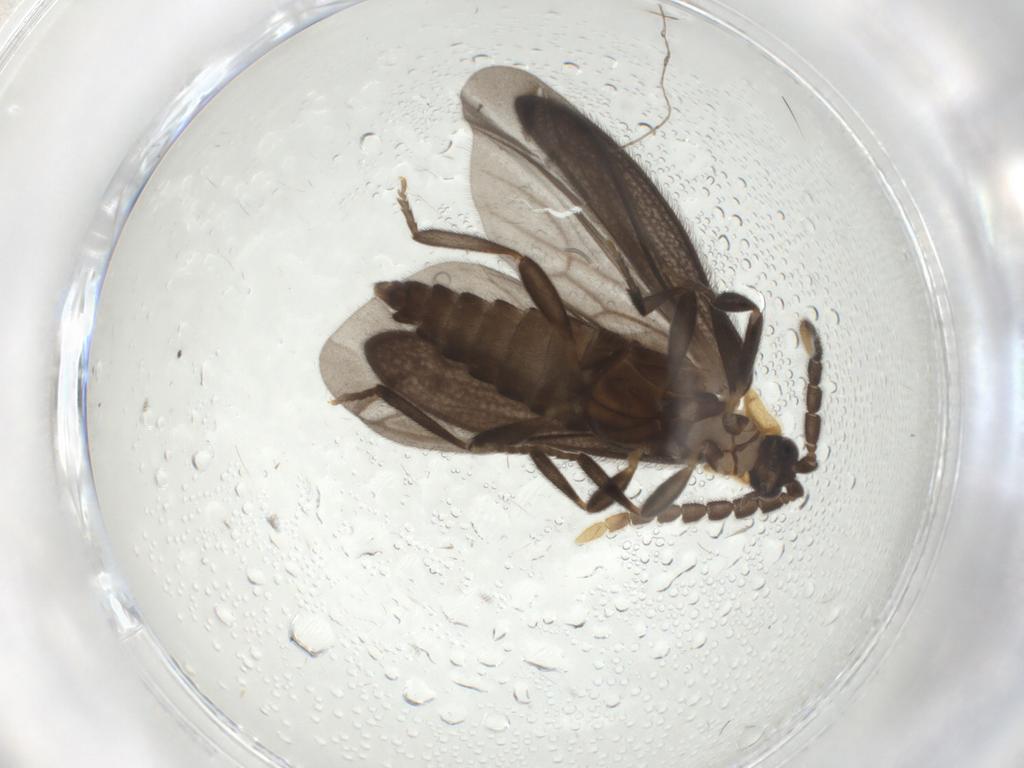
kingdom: Animalia
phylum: Arthropoda
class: Insecta
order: Coleoptera
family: Lycidae
